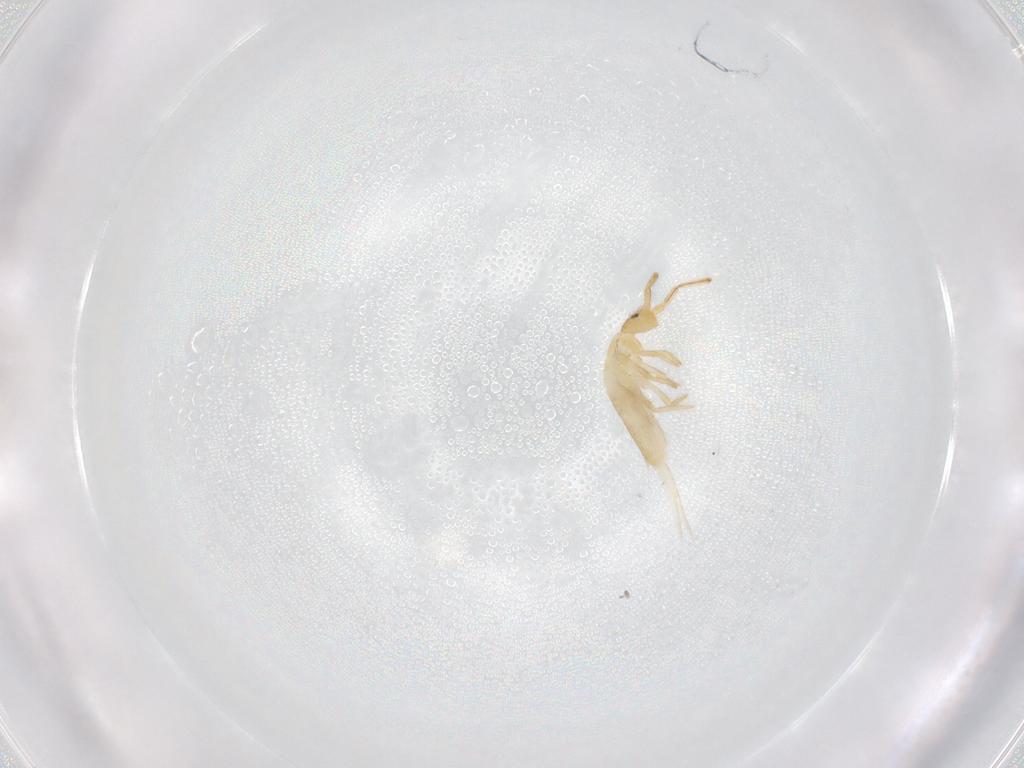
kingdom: Animalia
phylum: Arthropoda
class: Collembola
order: Entomobryomorpha
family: Entomobryidae
